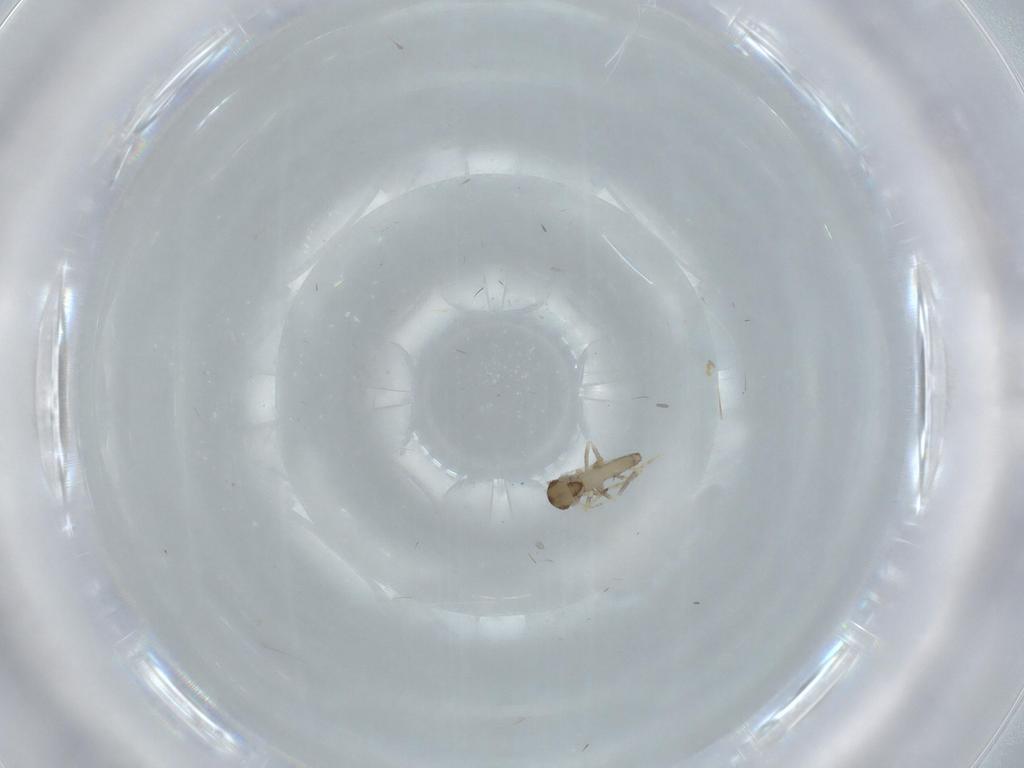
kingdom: Animalia
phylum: Arthropoda
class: Insecta
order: Diptera
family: Ceratopogonidae
